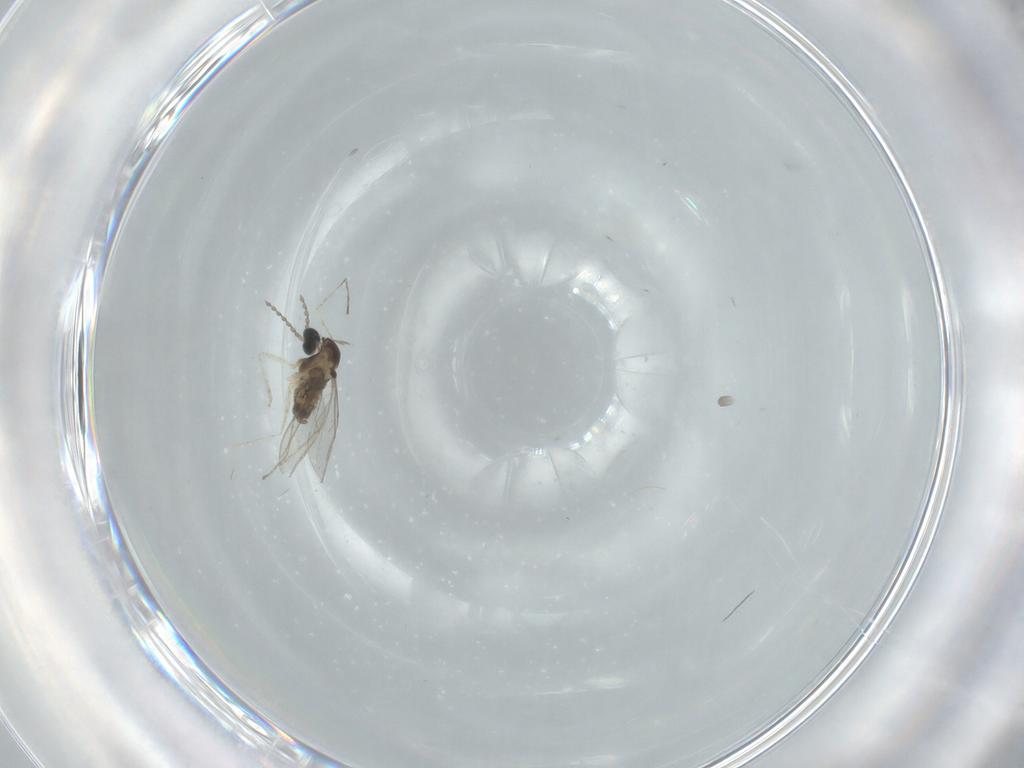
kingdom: Animalia
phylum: Arthropoda
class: Insecta
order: Diptera
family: Cecidomyiidae
